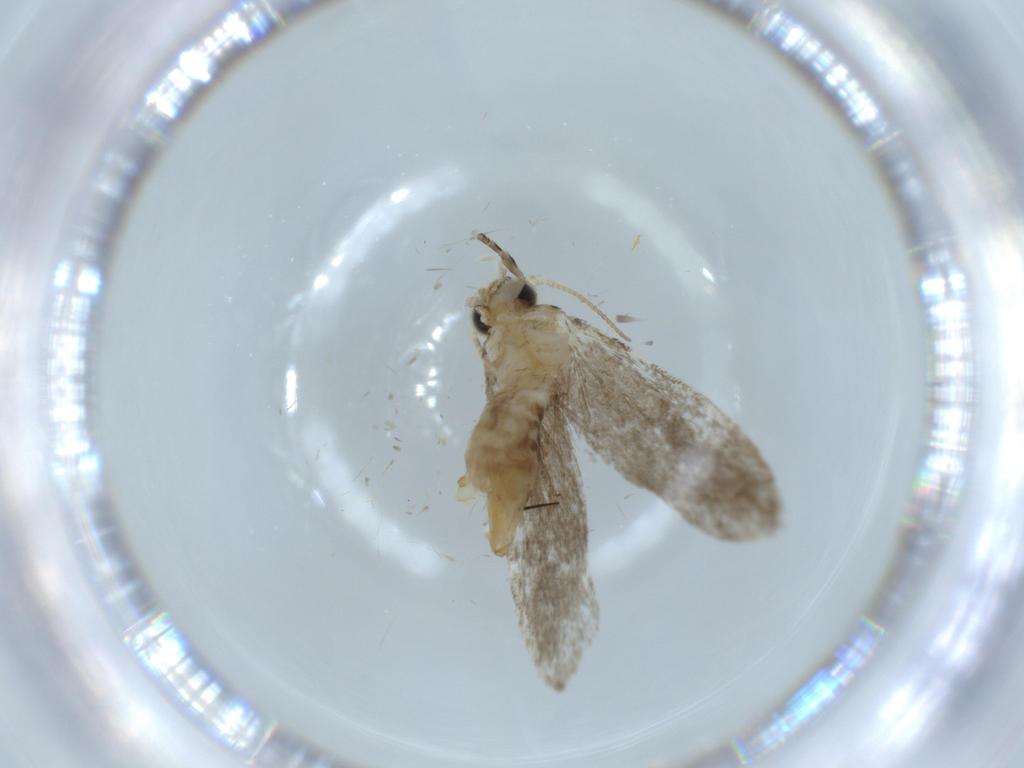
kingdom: Animalia
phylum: Arthropoda
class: Insecta
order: Lepidoptera
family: Tineidae
